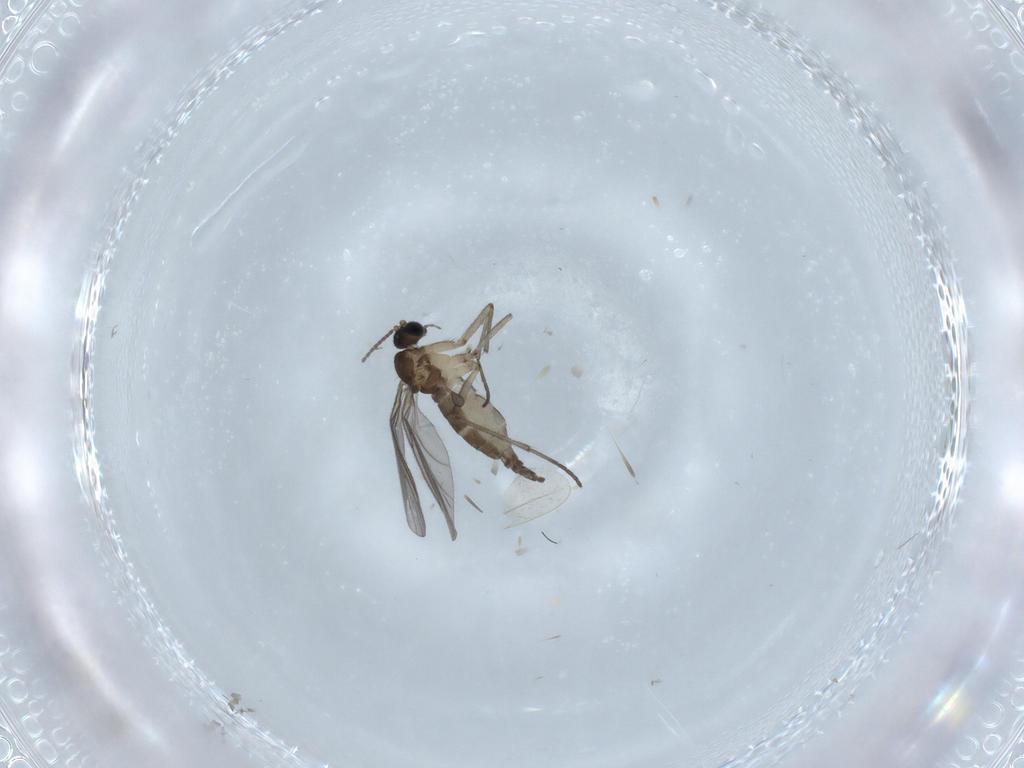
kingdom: Animalia
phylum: Arthropoda
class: Insecta
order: Diptera
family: Sciaridae
